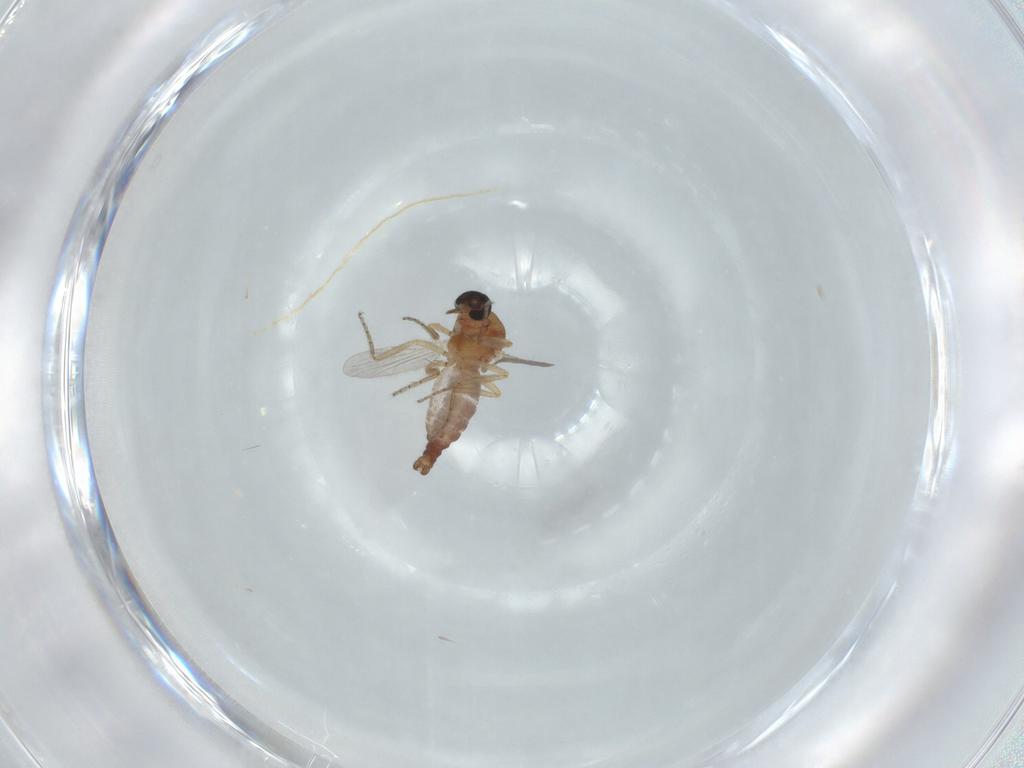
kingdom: Animalia
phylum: Arthropoda
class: Insecta
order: Diptera
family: Ceratopogonidae
